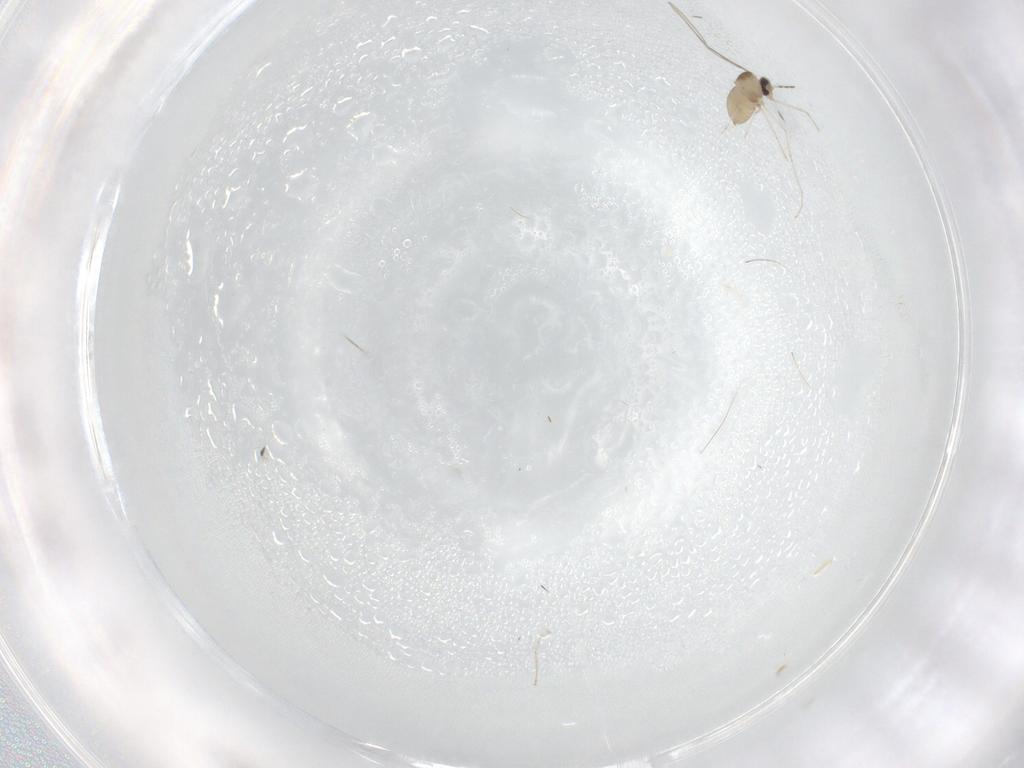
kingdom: Animalia
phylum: Arthropoda
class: Insecta
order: Diptera
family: Cecidomyiidae
